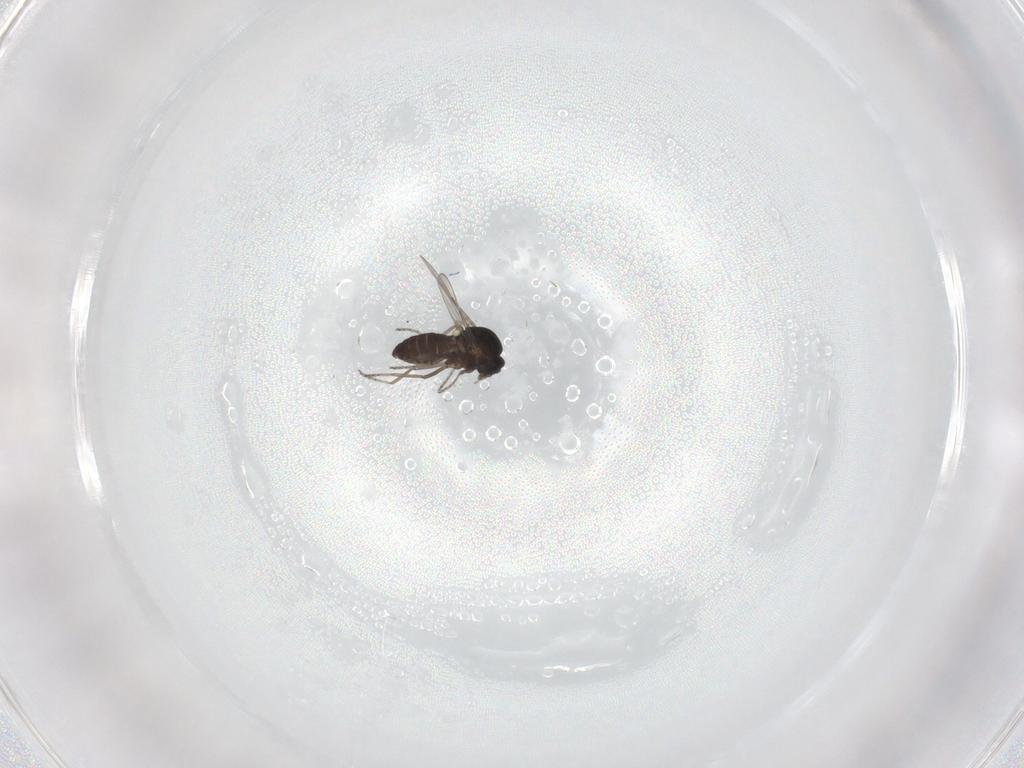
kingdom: Animalia
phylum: Arthropoda
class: Insecta
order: Diptera
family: Ceratopogonidae
